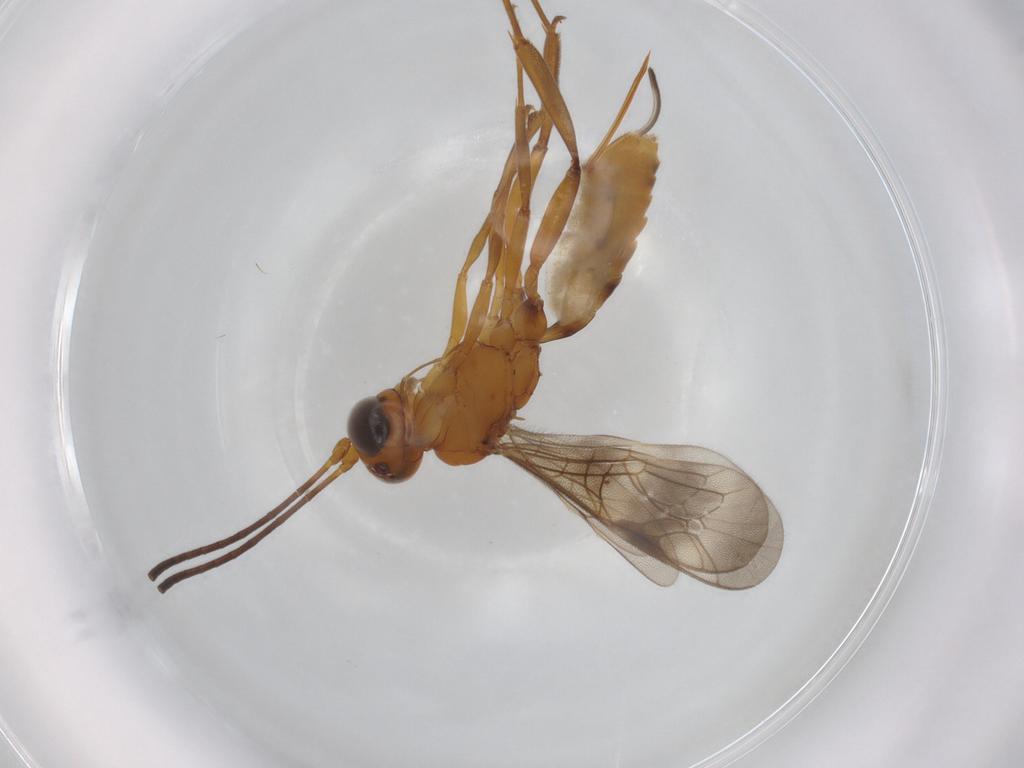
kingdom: Animalia
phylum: Arthropoda
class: Insecta
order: Hymenoptera
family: Ichneumonidae
